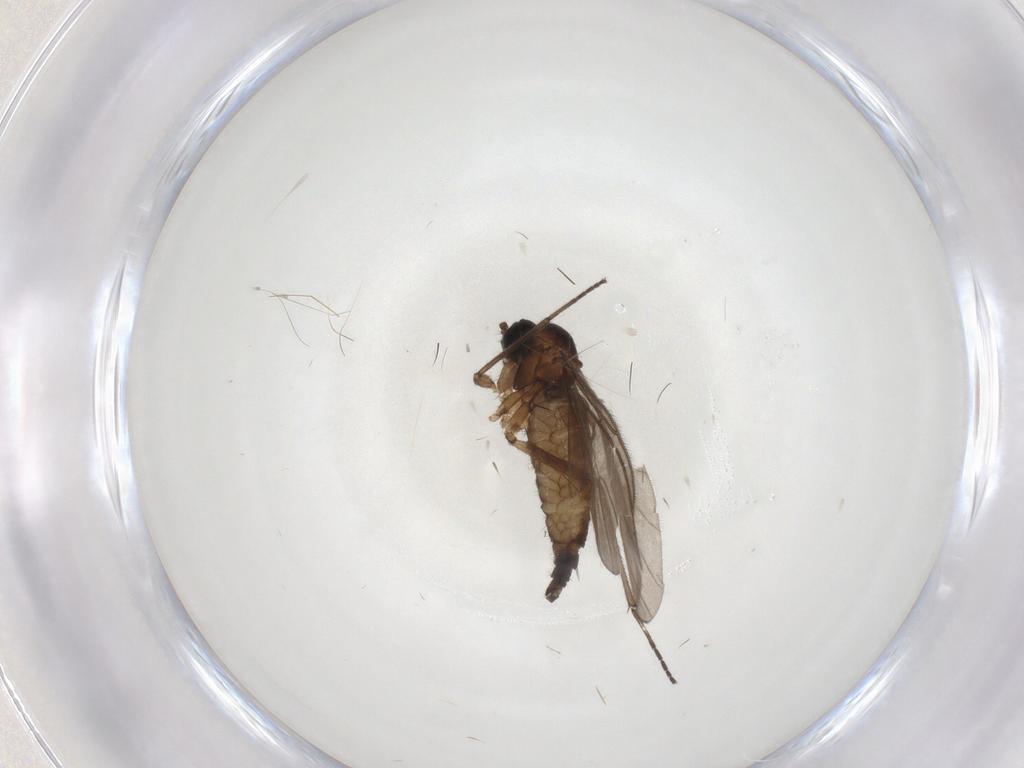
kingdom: Animalia
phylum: Arthropoda
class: Insecta
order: Diptera
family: Sciaridae
